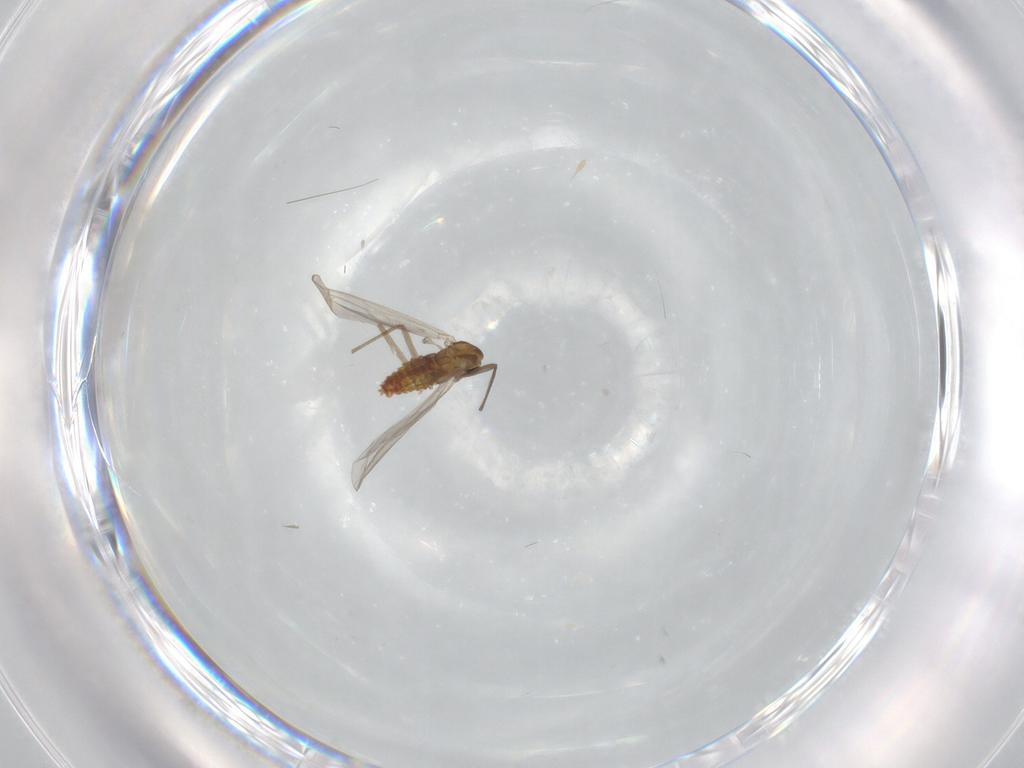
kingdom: Animalia
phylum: Arthropoda
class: Insecta
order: Diptera
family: Chironomidae
